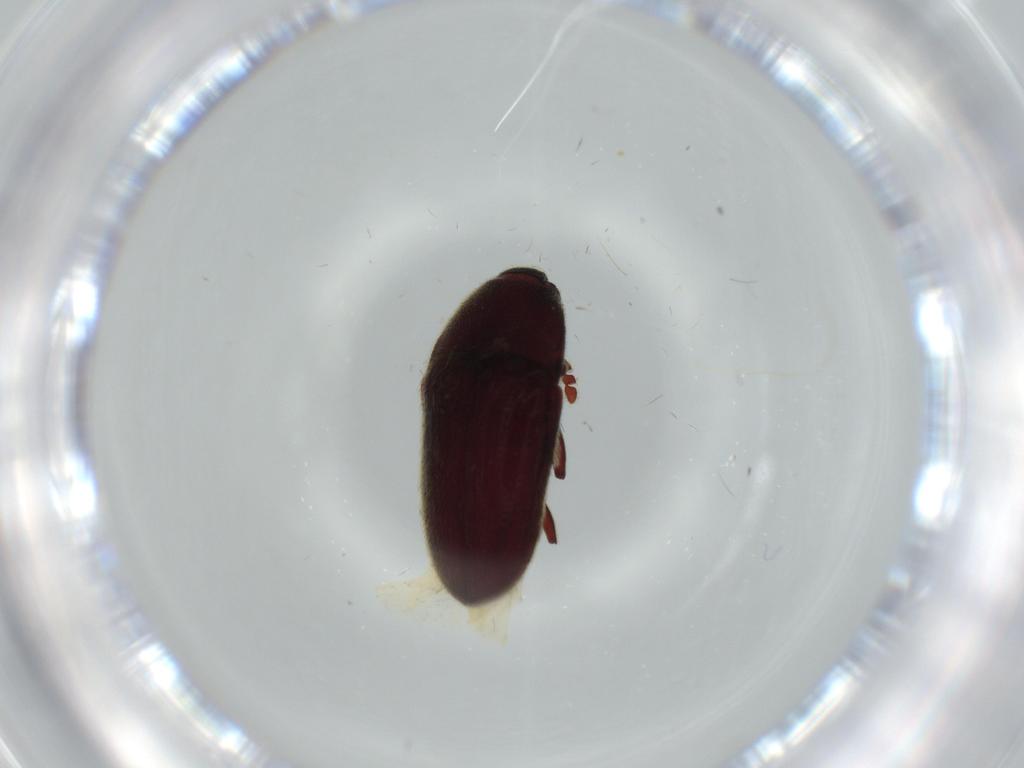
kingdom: Animalia
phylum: Arthropoda
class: Insecta
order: Coleoptera
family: Throscidae
